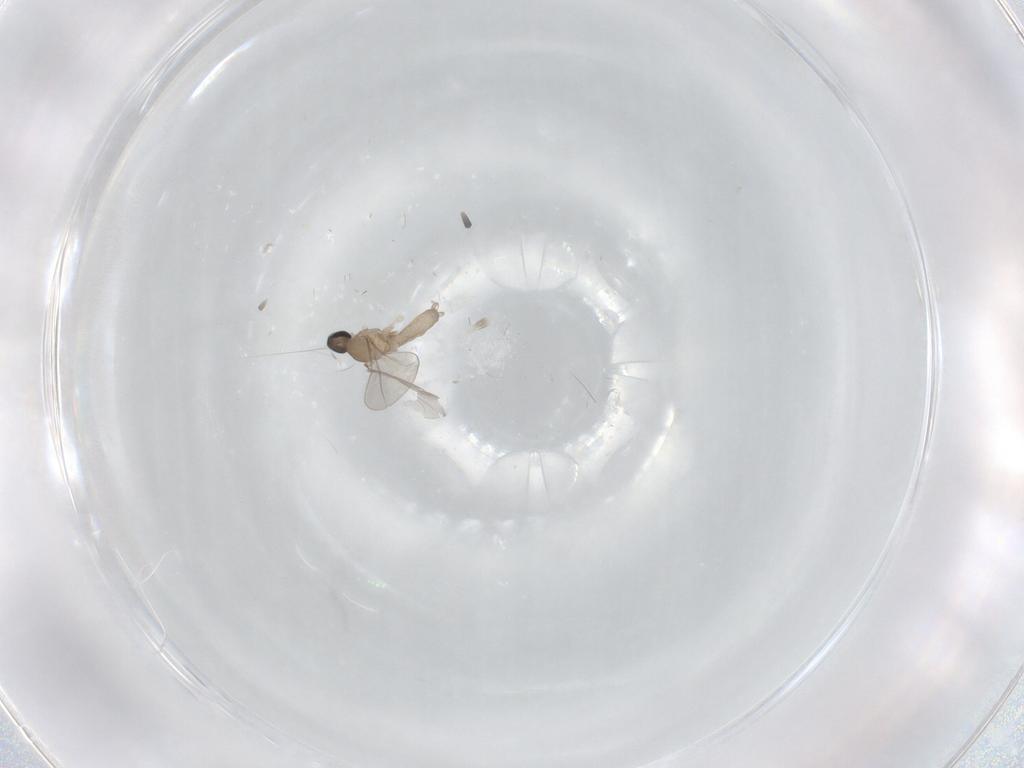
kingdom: Animalia
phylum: Arthropoda
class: Insecta
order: Diptera
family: Cecidomyiidae
